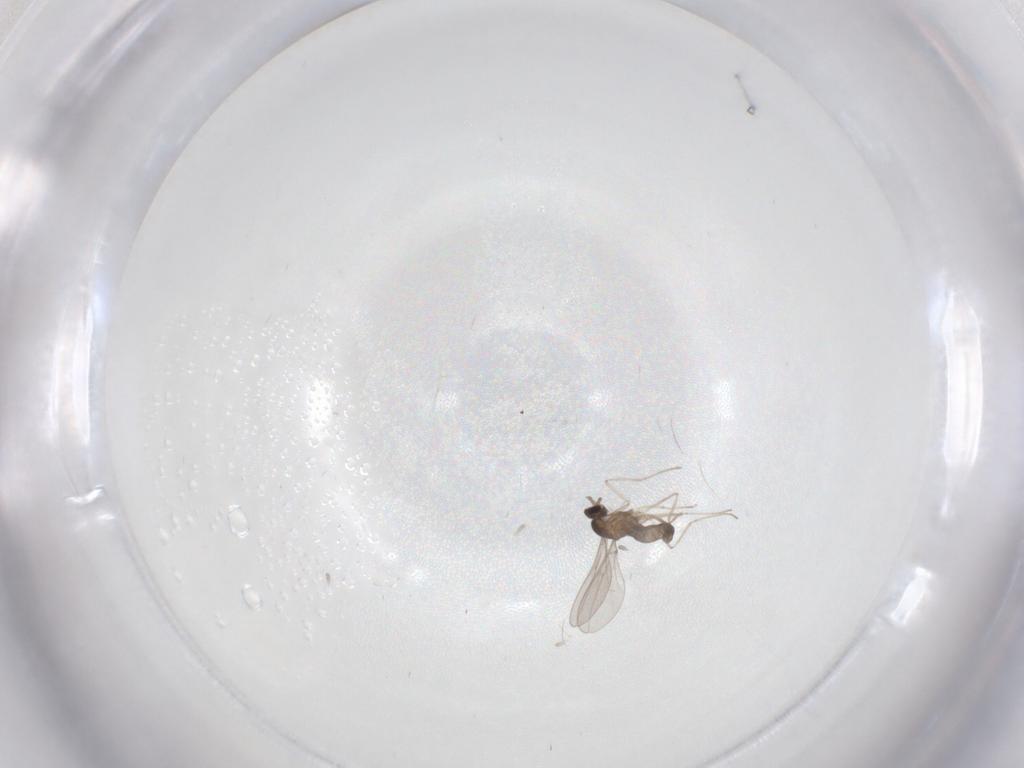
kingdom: Animalia
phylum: Arthropoda
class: Insecta
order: Diptera
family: Cecidomyiidae
